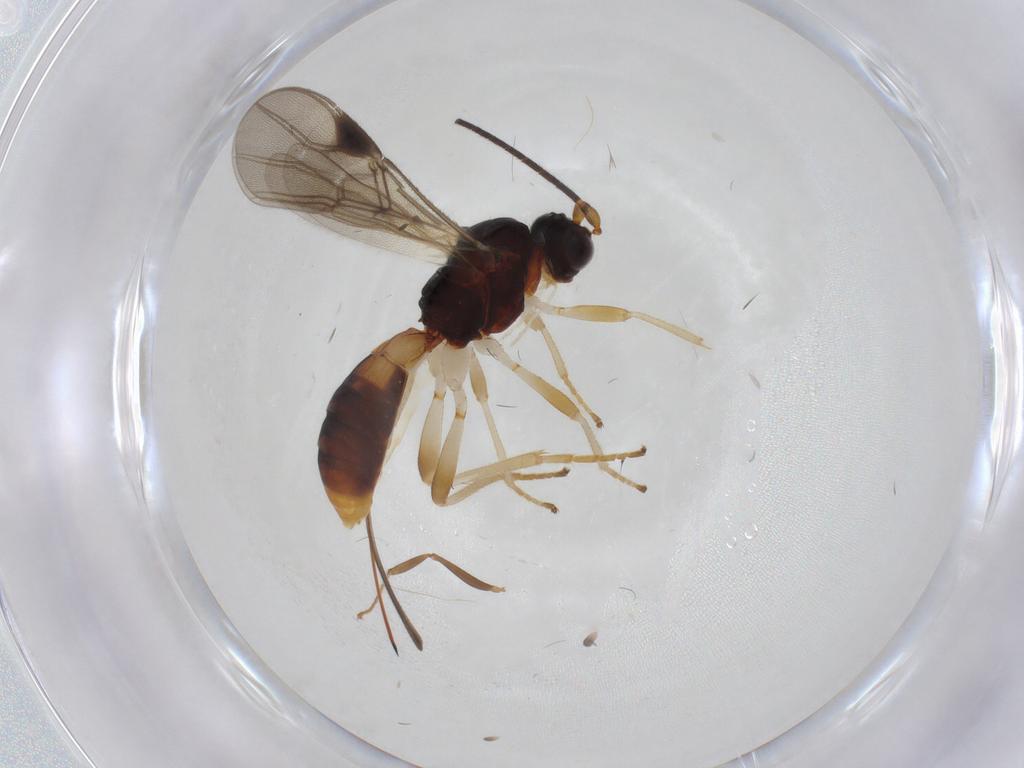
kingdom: Animalia
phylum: Arthropoda
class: Insecta
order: Hymenoptera
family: Braconidae
